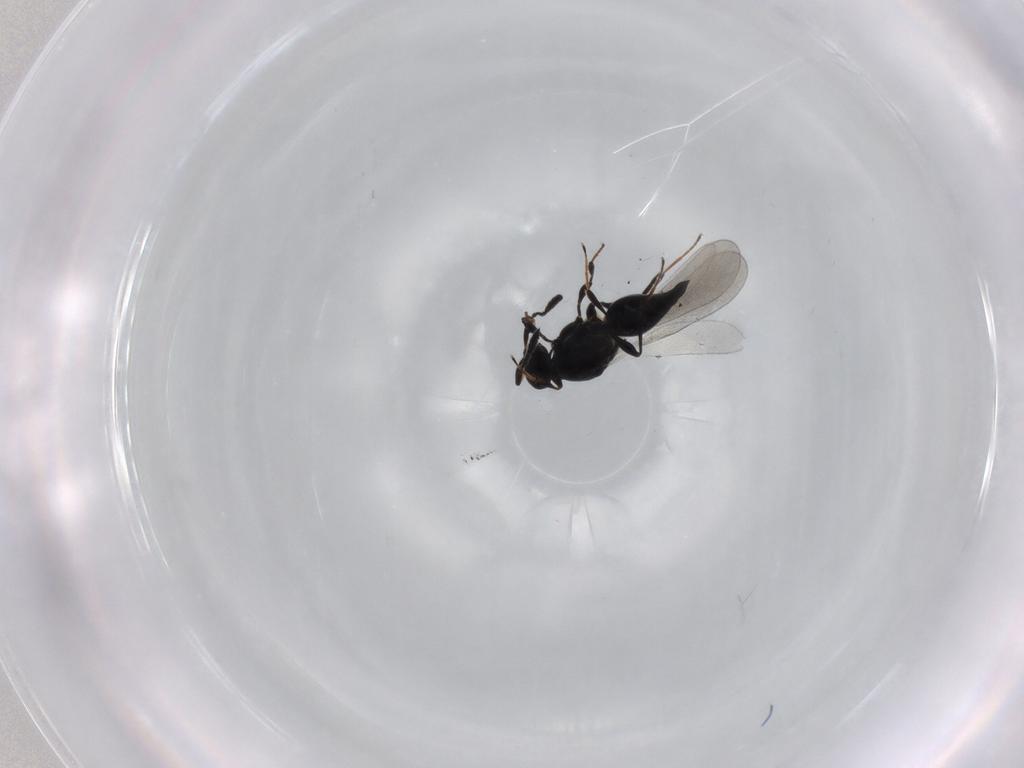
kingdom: Animalia
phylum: Arthropoda
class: Insecta
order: Hymenoptera
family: Platygastridae
